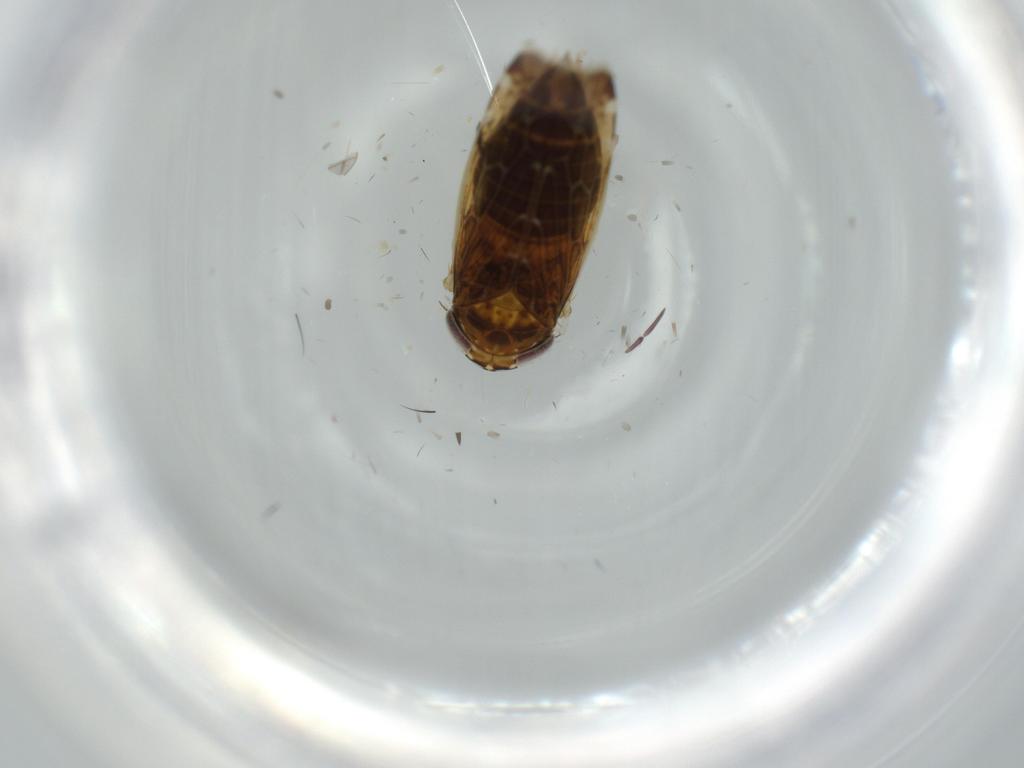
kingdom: Animalia
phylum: Arthropoda
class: Insecta
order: Hemiptera
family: Cicadellidae
